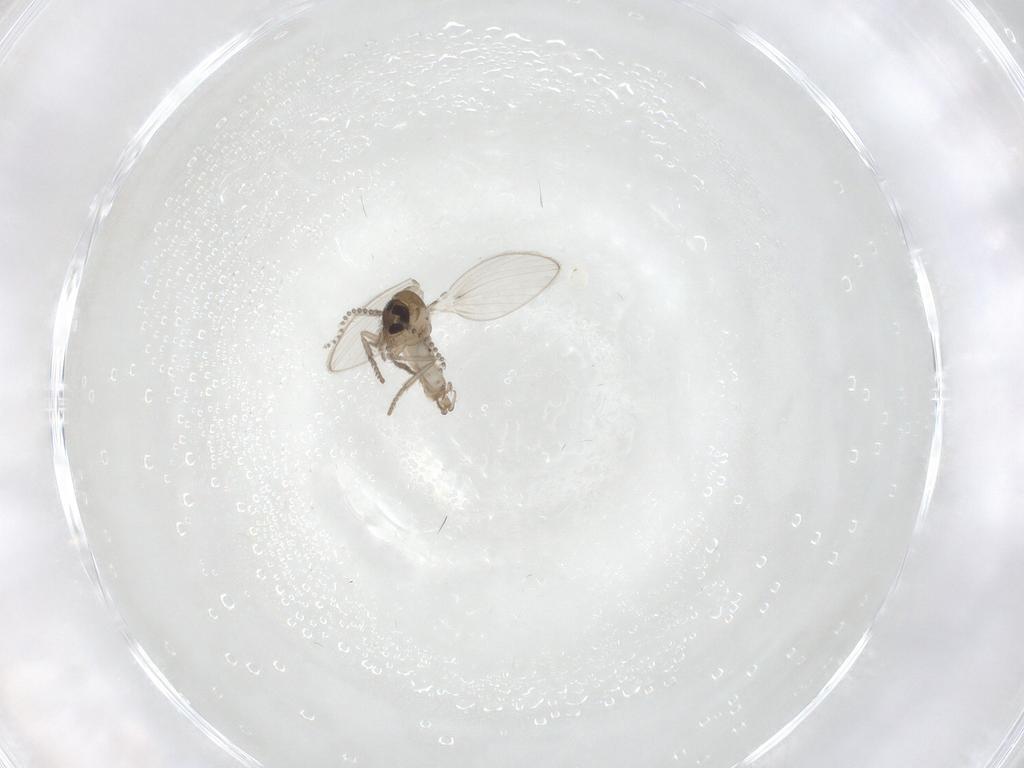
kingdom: Animalia
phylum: Arthropoda
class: Insecta
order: Diptera
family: Psychodidae
